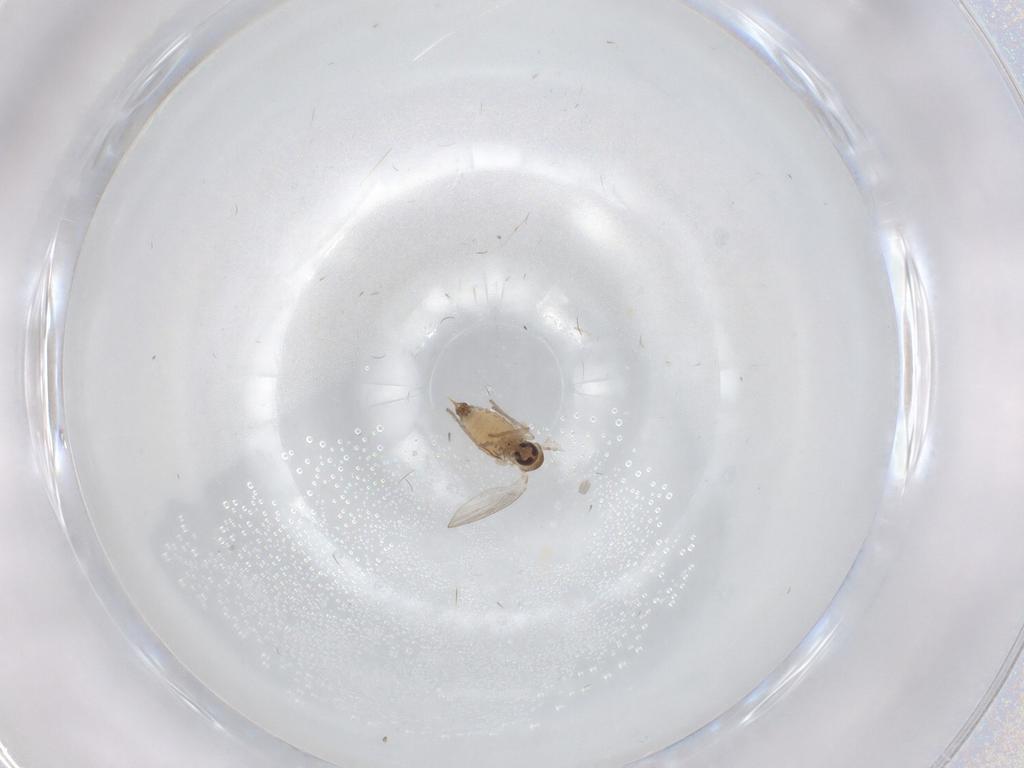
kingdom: Animalia
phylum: Arthropoda
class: Insecta
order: Diptera
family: Psychodidae
